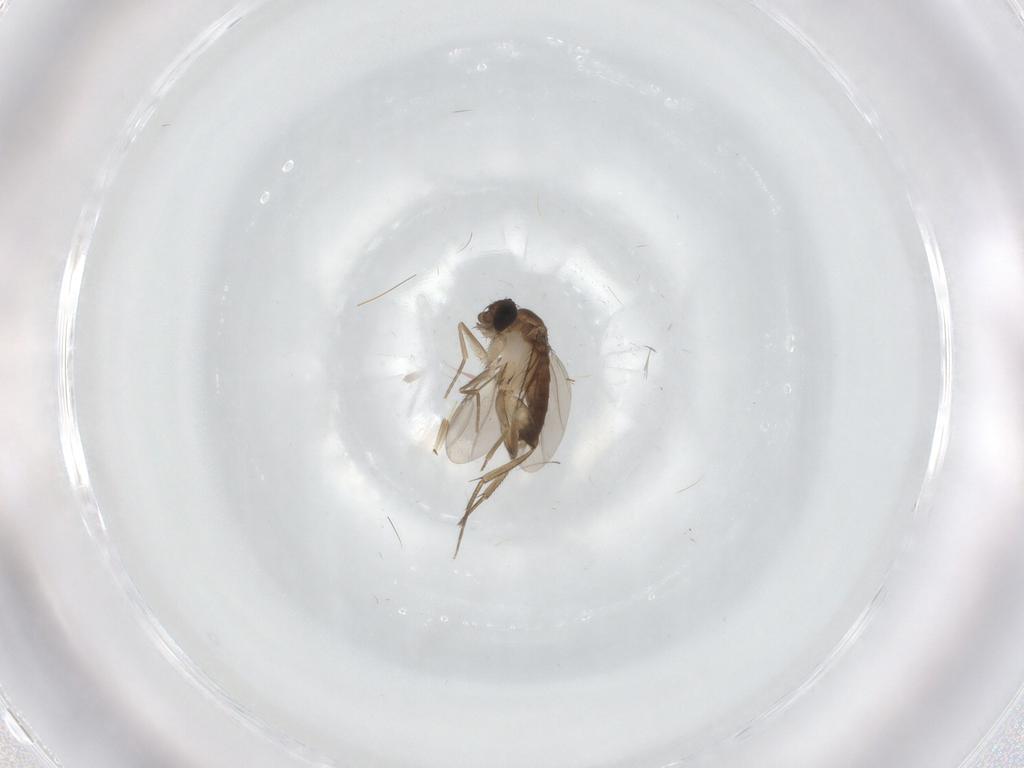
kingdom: Animalia
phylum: Arthropoda
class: Insecta
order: Diptera
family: Phoridae
